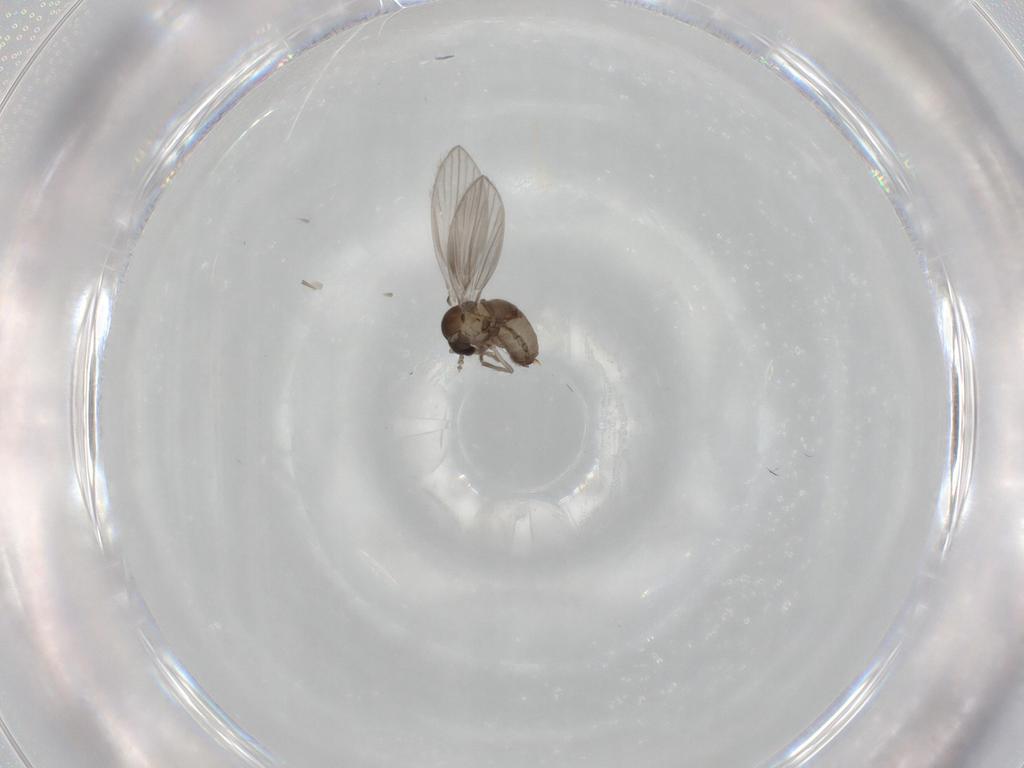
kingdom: Animalia
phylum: Arthropoda
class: Insecta
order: Diptera
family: Psychodidae
